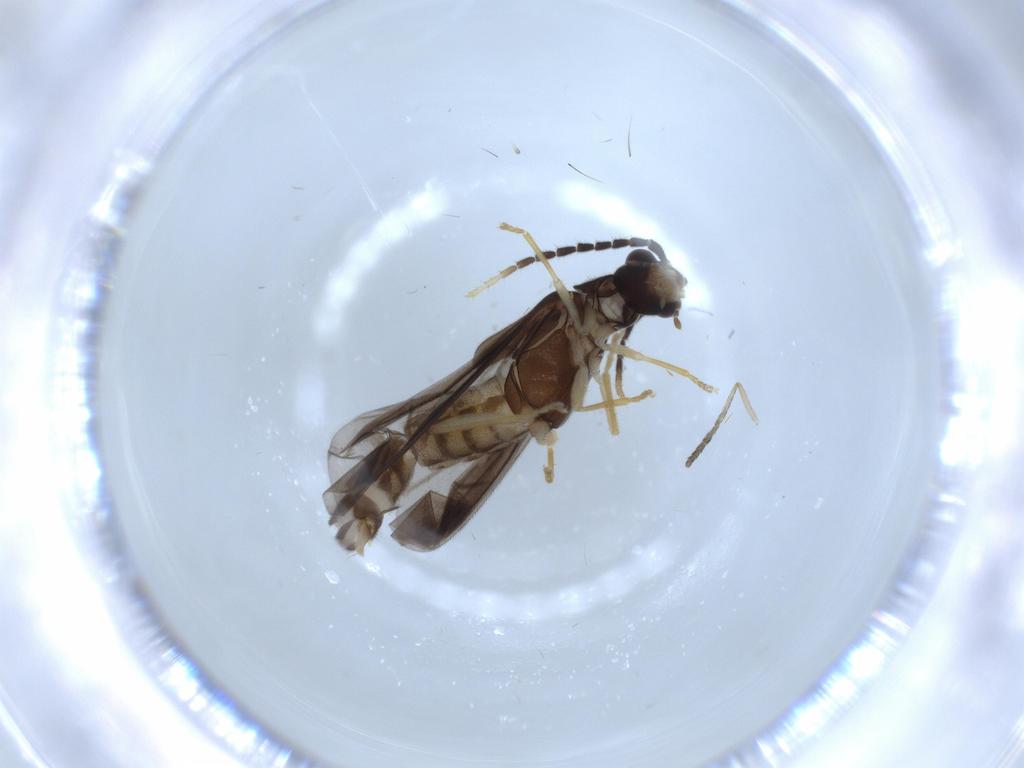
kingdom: Animalia
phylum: Arthropoda
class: Insecta
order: Coleoptera
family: Cantharidae
